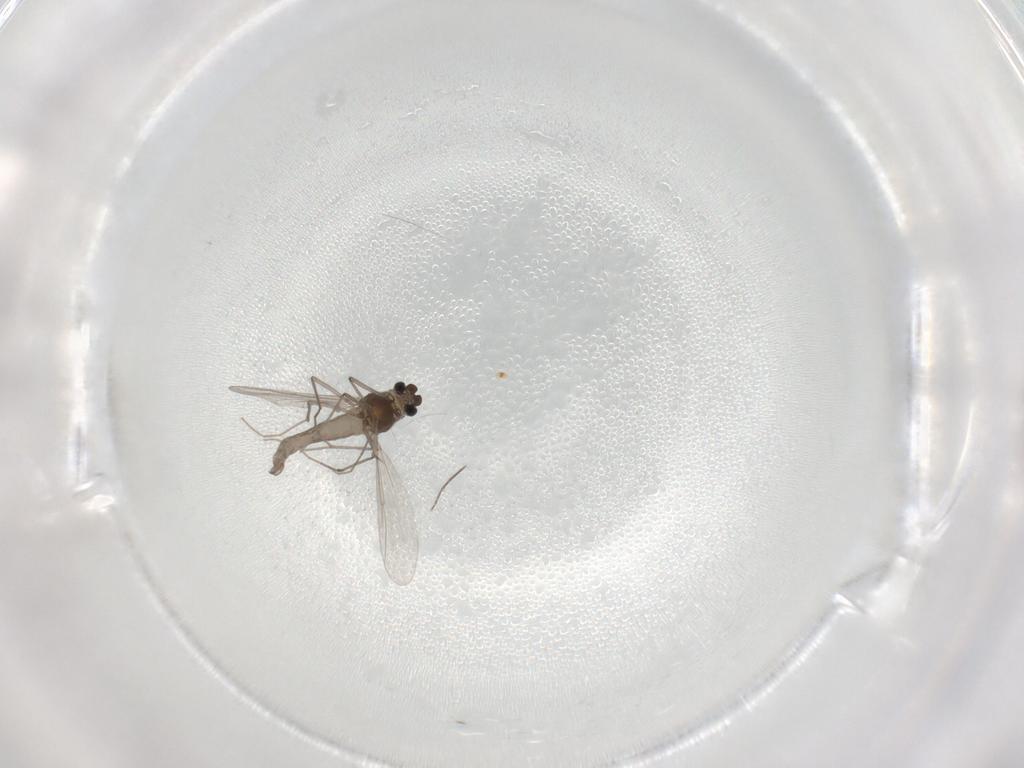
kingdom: Animalia
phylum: Arthropoda
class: Insecta
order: Diptera
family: Chironomidae
